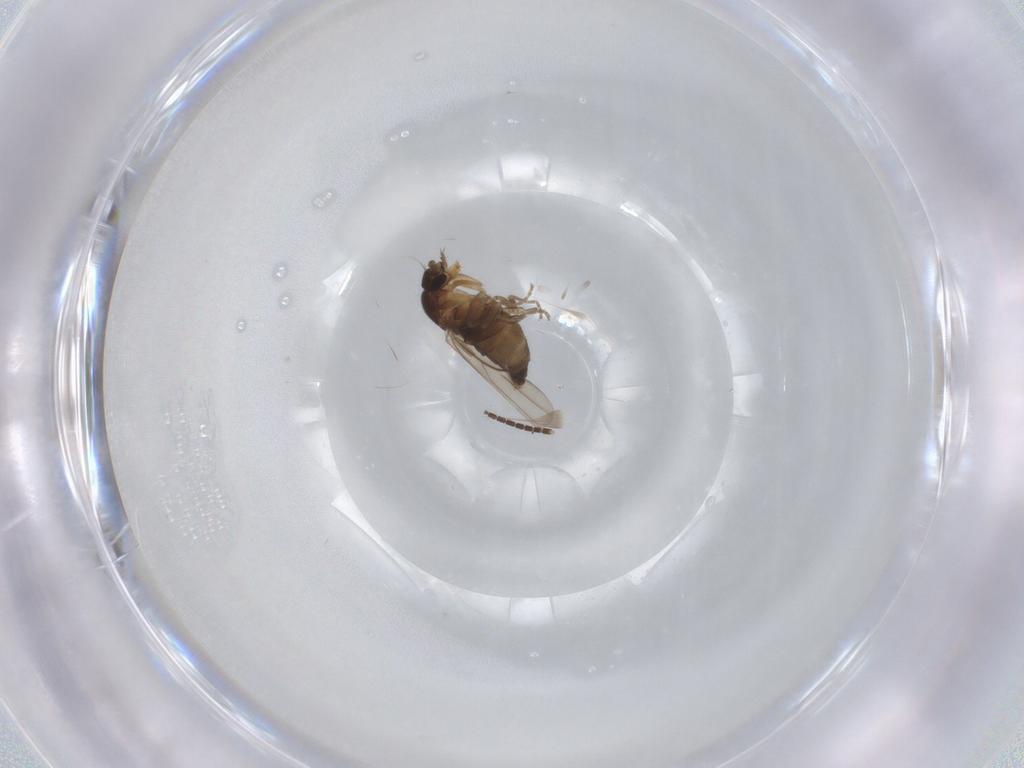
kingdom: Animalia
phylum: Arthropoda
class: Insecta
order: Diptera
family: Phoridae
